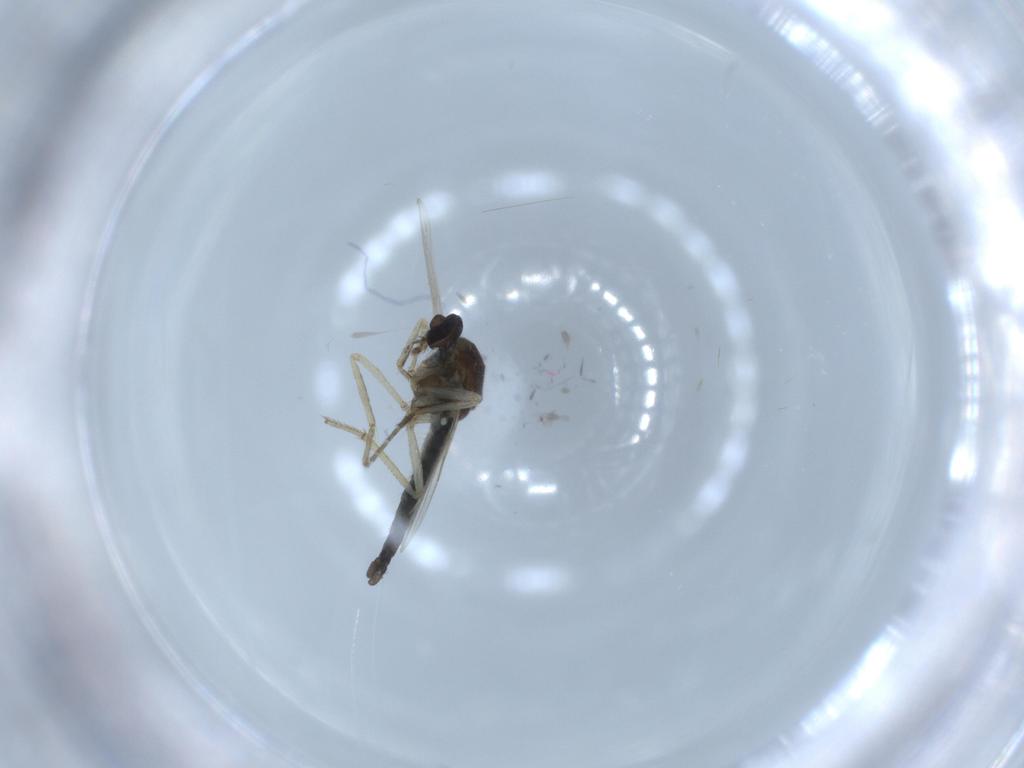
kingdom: Animalia
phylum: Arthropoda
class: Insecta
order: Diptera
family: Ceratopogonidae
